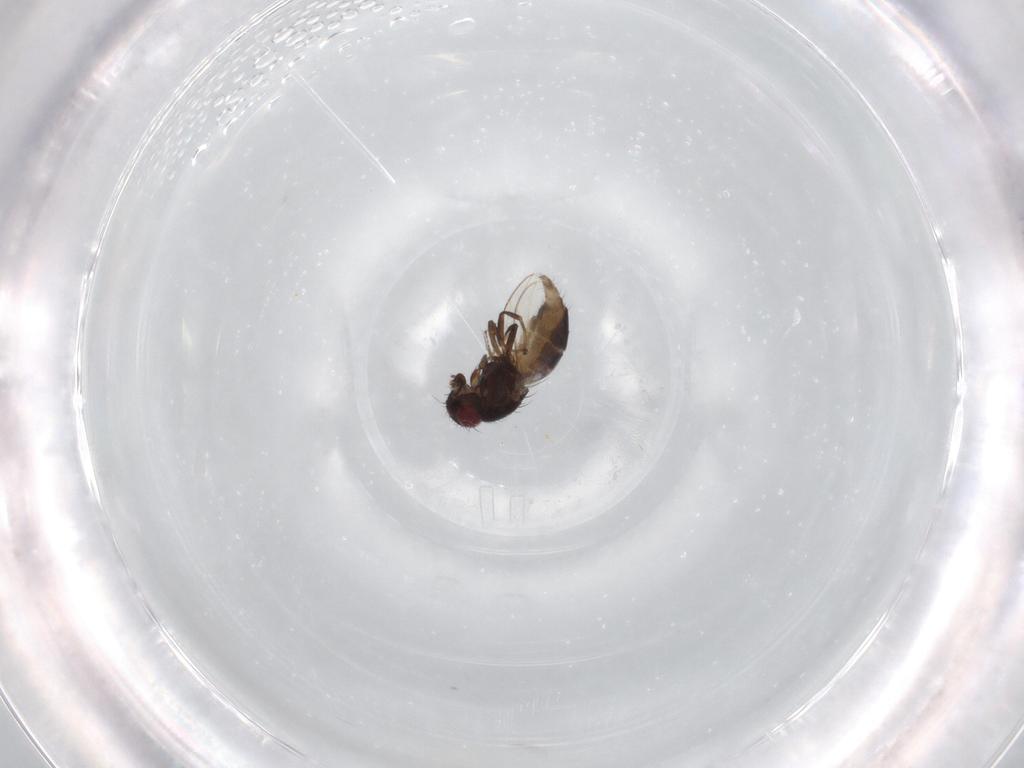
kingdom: Animalia
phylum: Arthropoda
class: Insecta
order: Diptera
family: Sarcophagidae
